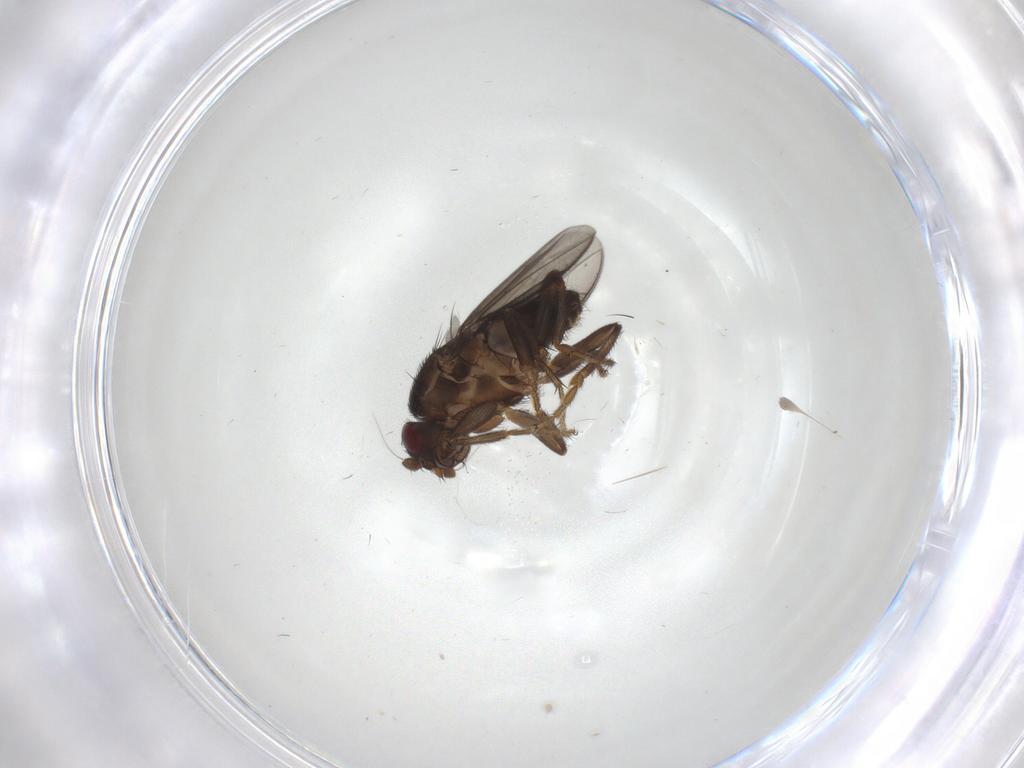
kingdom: Animalia
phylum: Arthropoda
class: Insecta
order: Diptera
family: Sphaeroceridae
